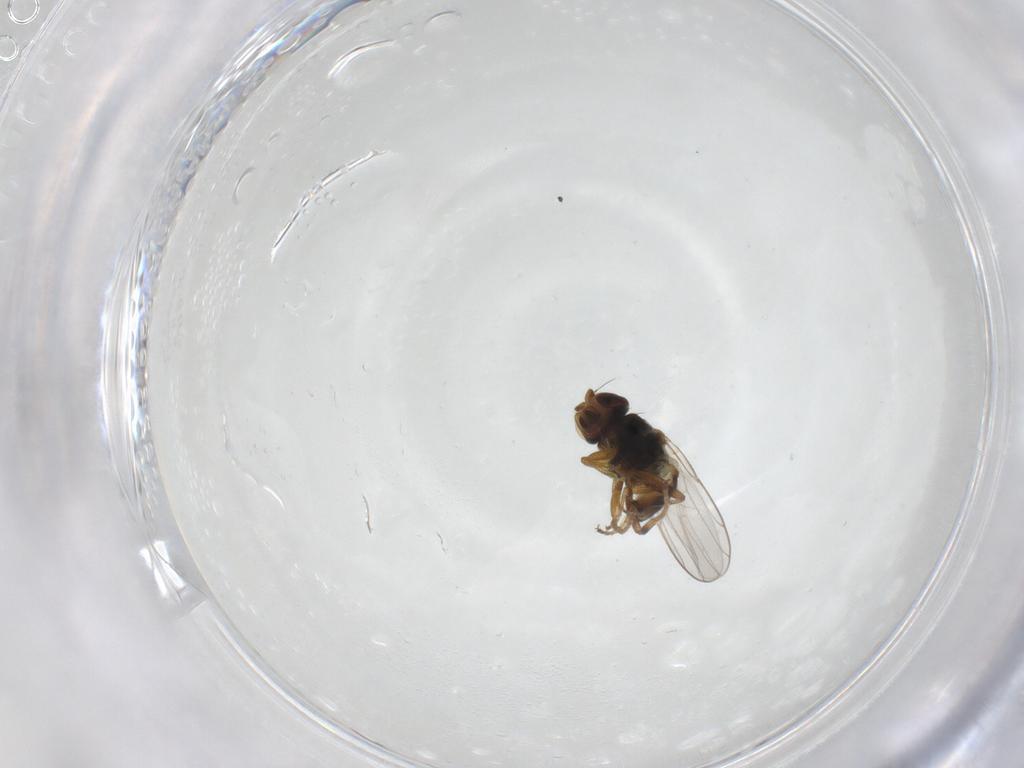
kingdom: Animalia
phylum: Arthropoda
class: Insecta
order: Diptera
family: Chloropidae
